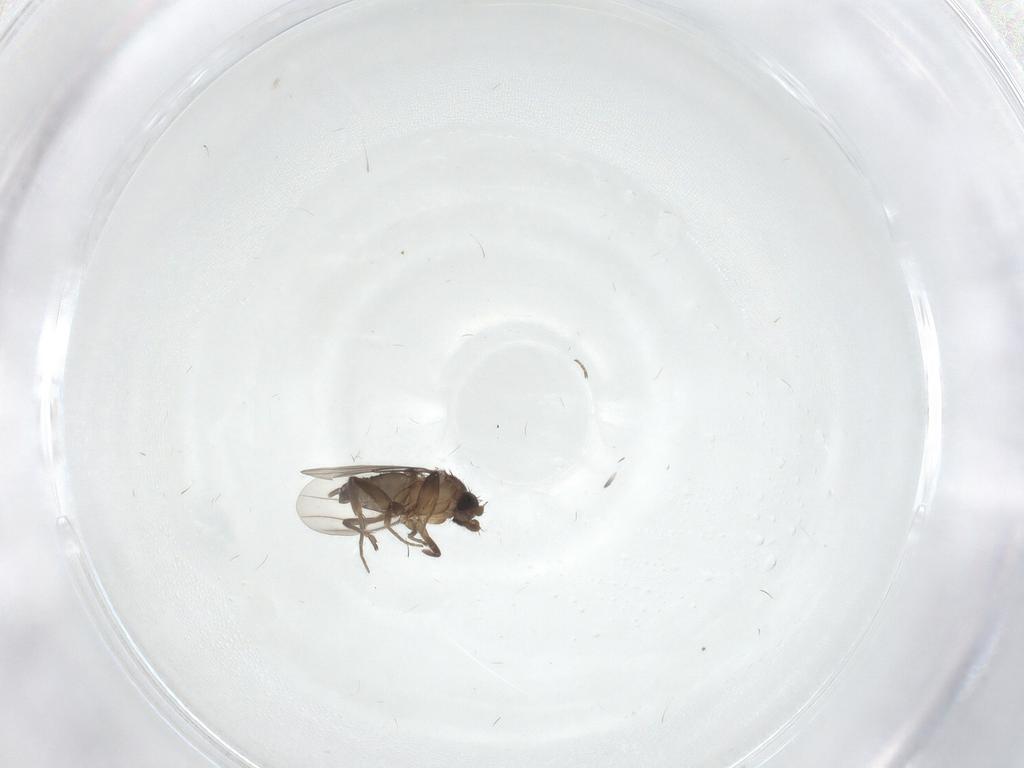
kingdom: Animalia
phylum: Arthropoda
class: Insecta
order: Diptera
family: Phoridae
